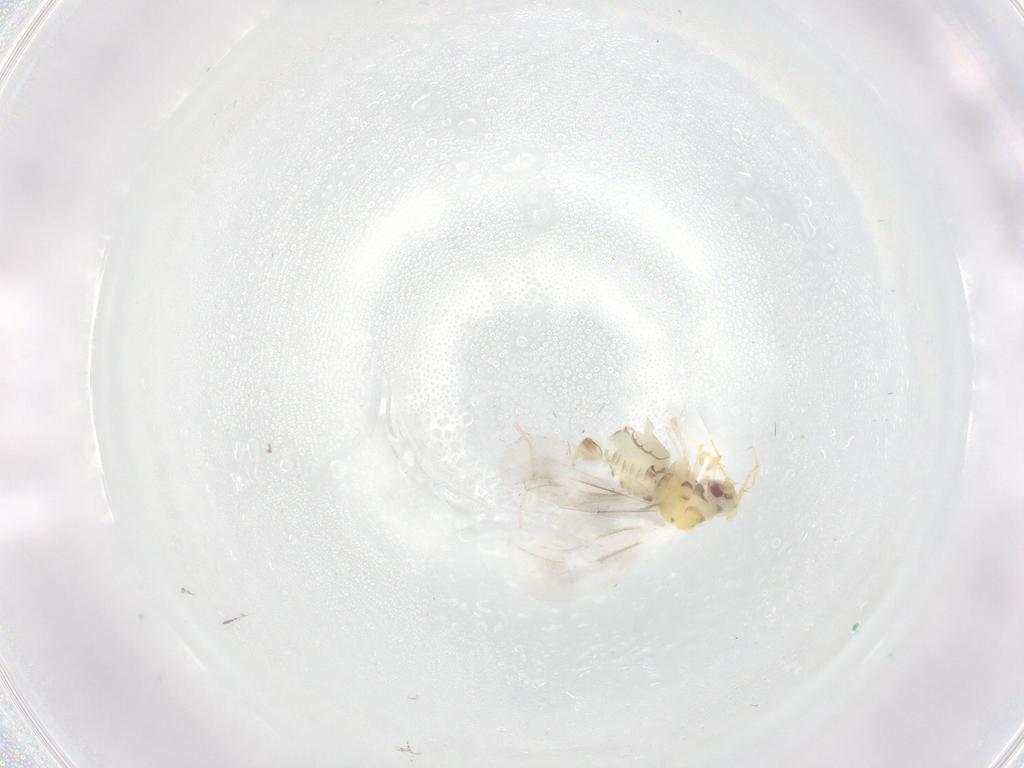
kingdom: Animalia
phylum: Arthropoda
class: Insecta
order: Hemiptera
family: Aleyrodidae
